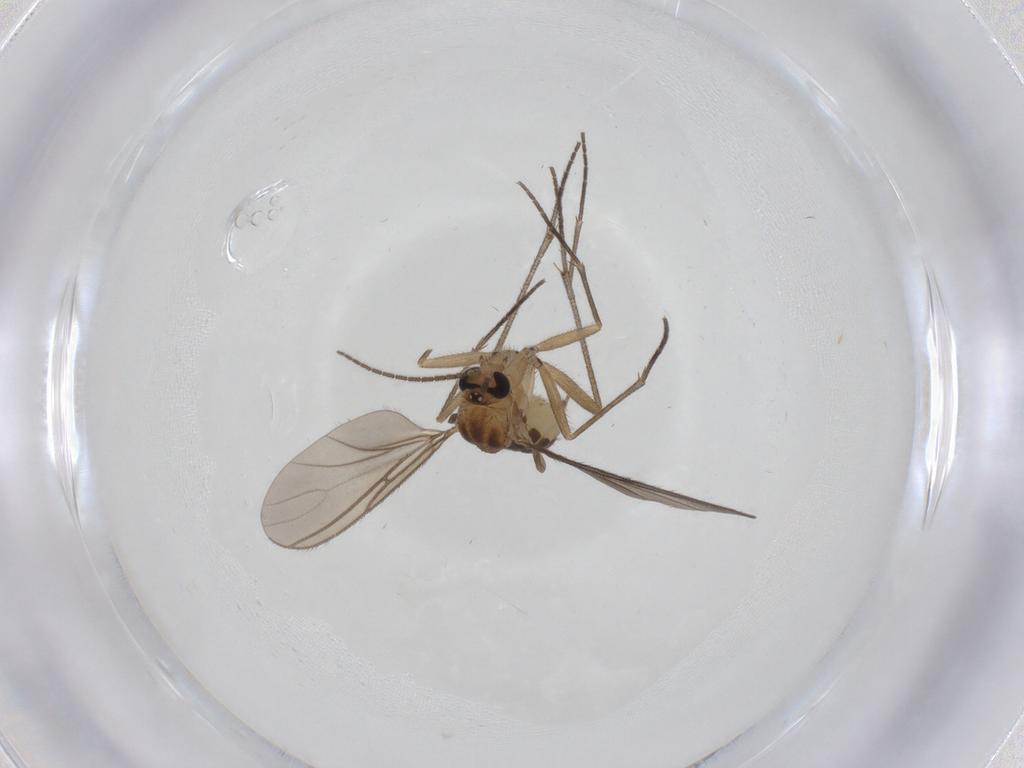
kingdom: Animalia
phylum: Arthropoda
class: Insecta
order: Diptera
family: Sciaridae
